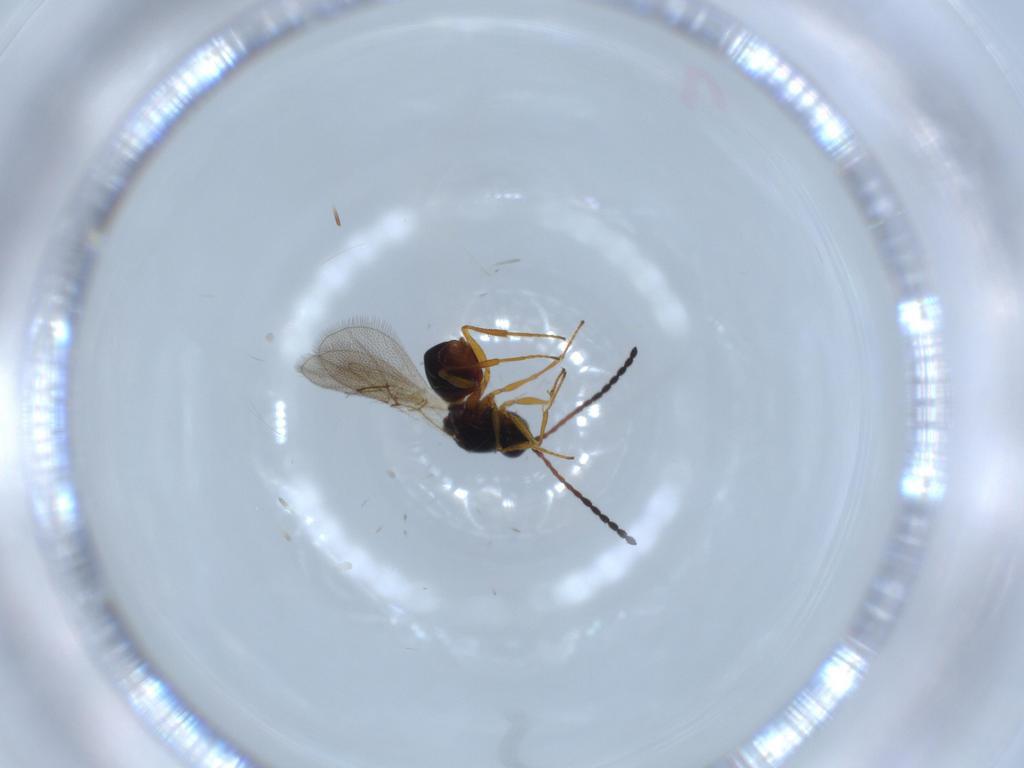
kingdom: Animalia
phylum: Arthropoda
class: Insecta
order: Hymenoptera
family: Figitidae
